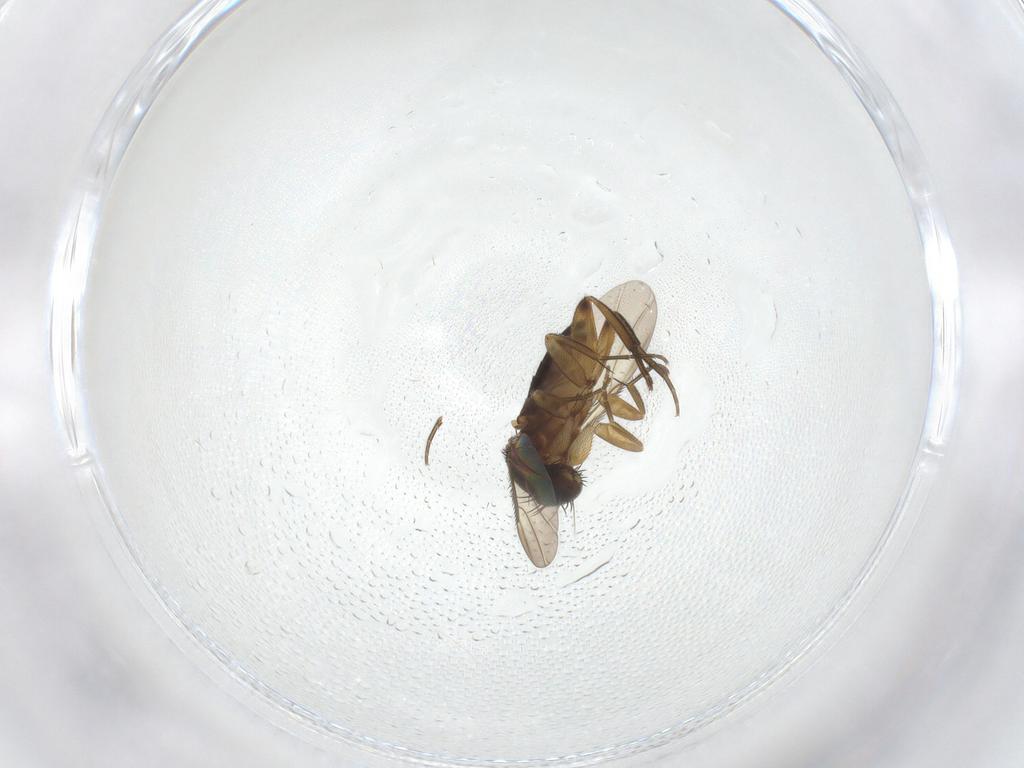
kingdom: Animalia
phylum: Arthropoda
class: Insecta
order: Diptera
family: Phoridae
